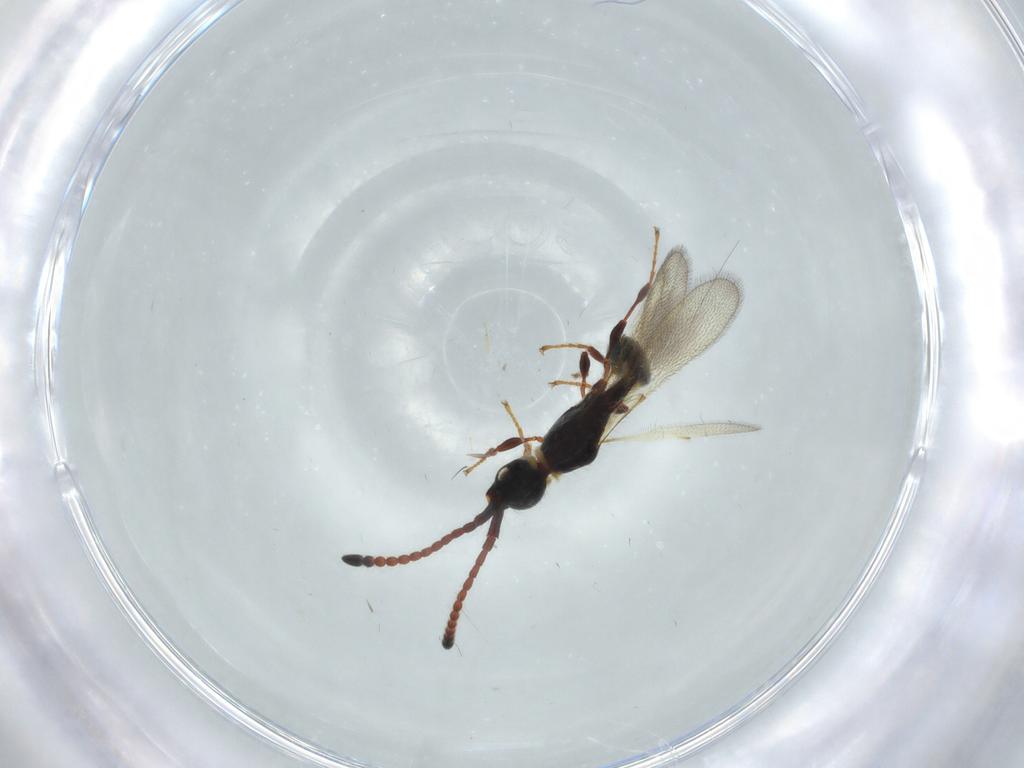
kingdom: Animalia
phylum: Arthropoda
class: Insecta
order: Hymenoptera
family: Diapriidae
